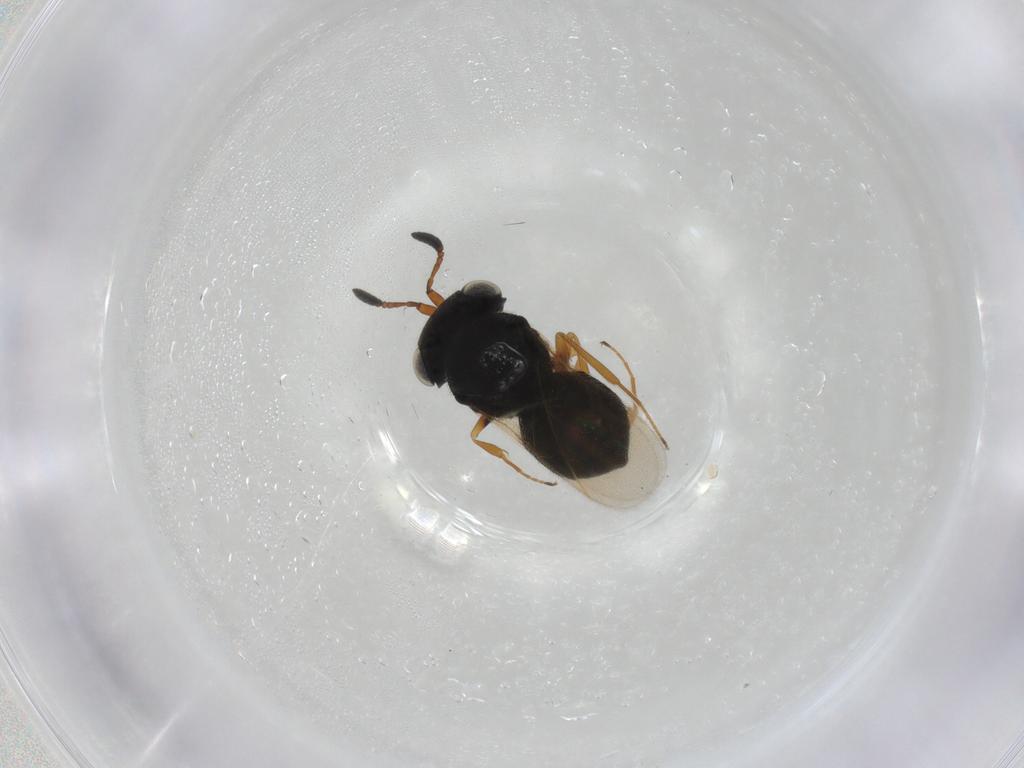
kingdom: Animalia
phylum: Arthropoda
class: Insecta
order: Hymenoptera
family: Scelionidae
